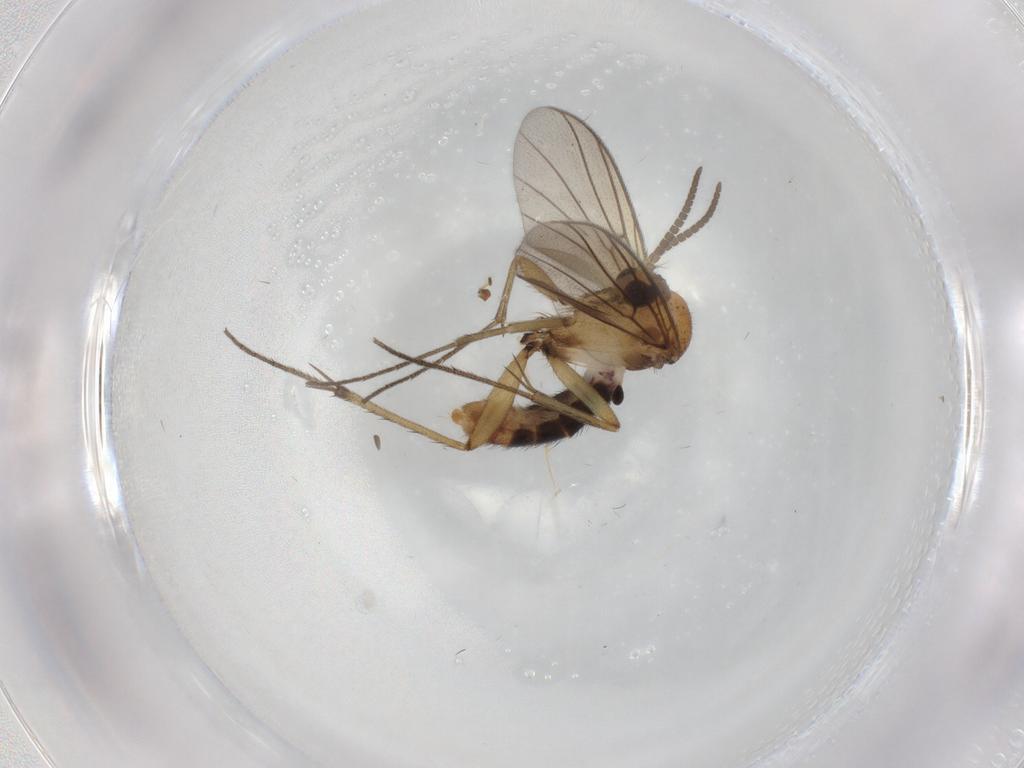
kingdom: Animalia
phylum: Arthropoda
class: Insecta
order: Diptera
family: Mycetophilidae
